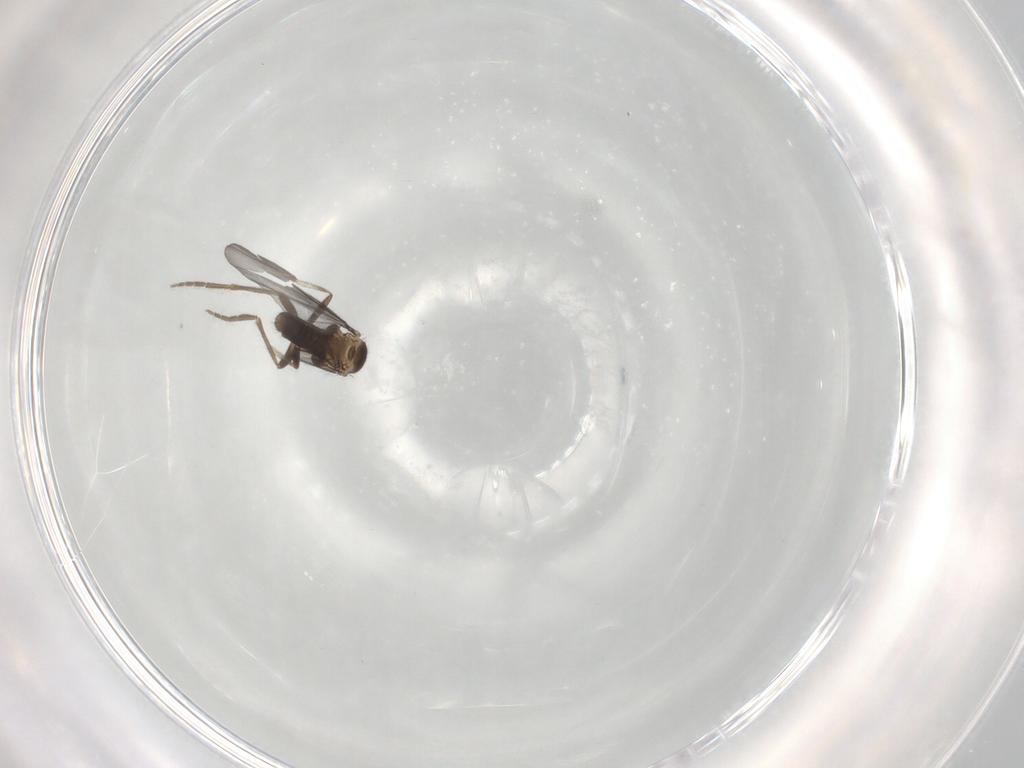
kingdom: Animalia
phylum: Arthropoda
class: Insecta
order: Diptera
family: Phoridae
